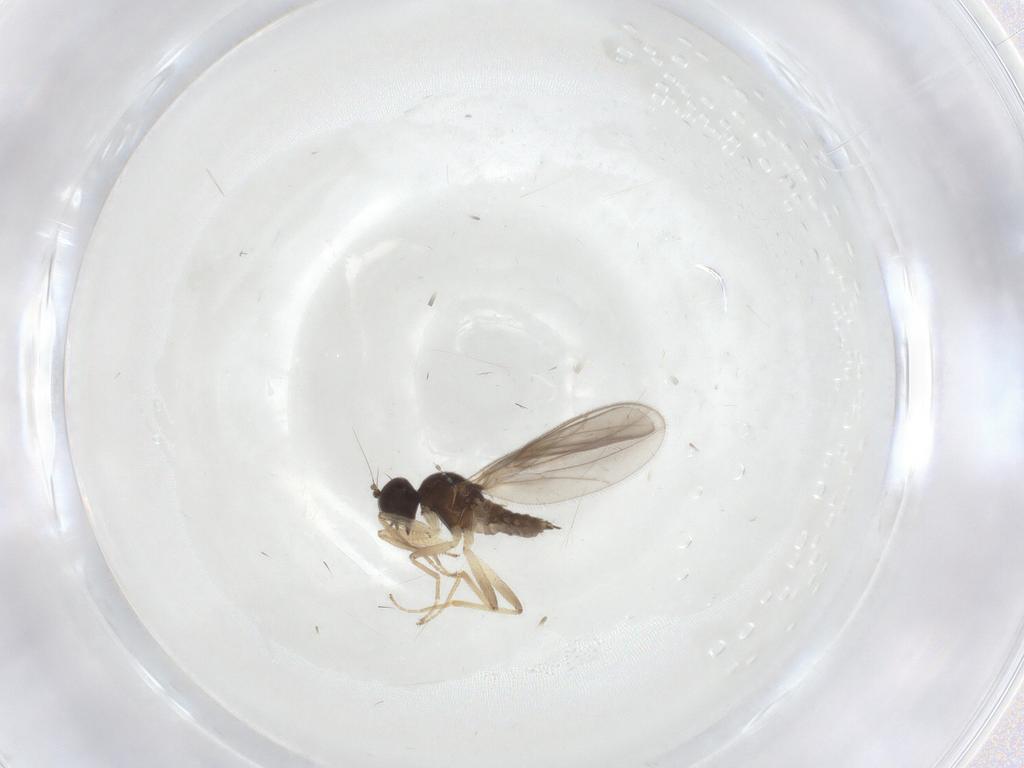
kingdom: Animalia
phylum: Arthropoda
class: Insecta
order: Diptera
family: Hybotidae
